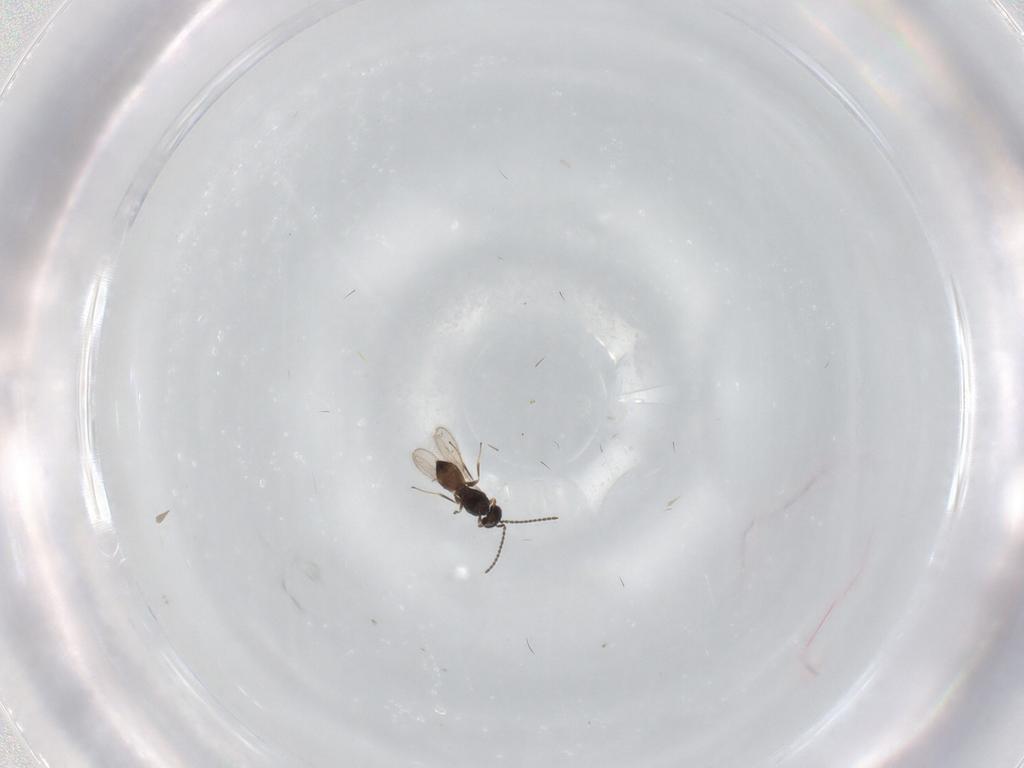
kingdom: Animalia
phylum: Arthropoda
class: Insecta
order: Hymenoptera
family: Scelionidae
